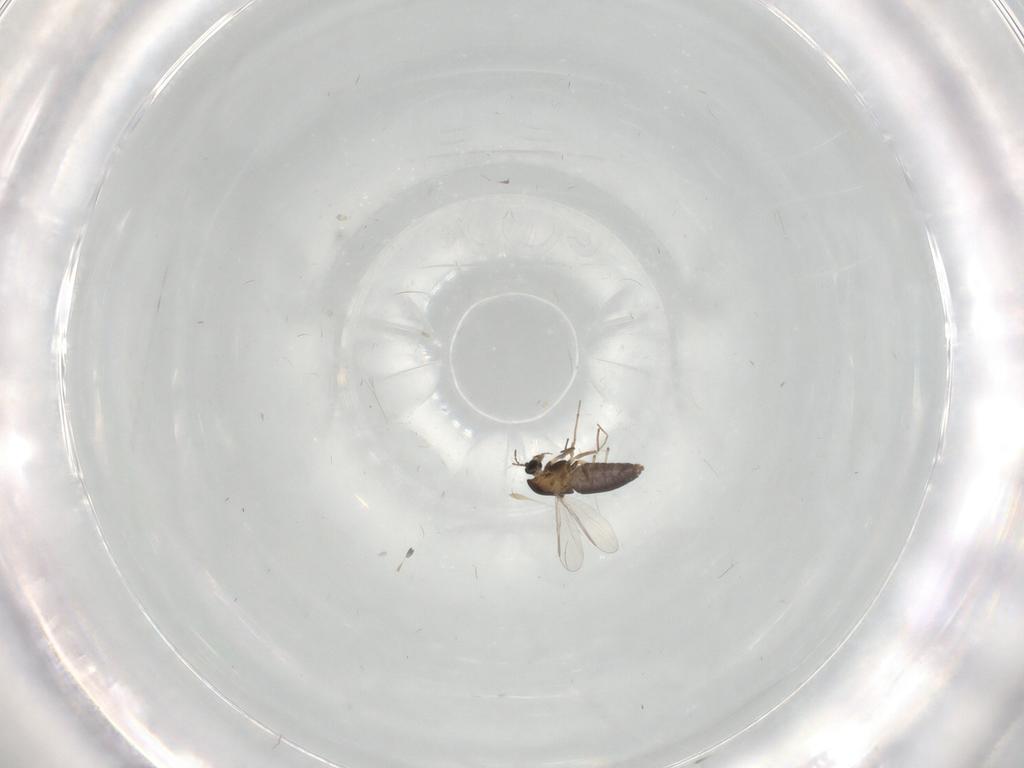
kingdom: Animalia
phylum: Arthropoda
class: Insecta
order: Diptera
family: Chironomidae
